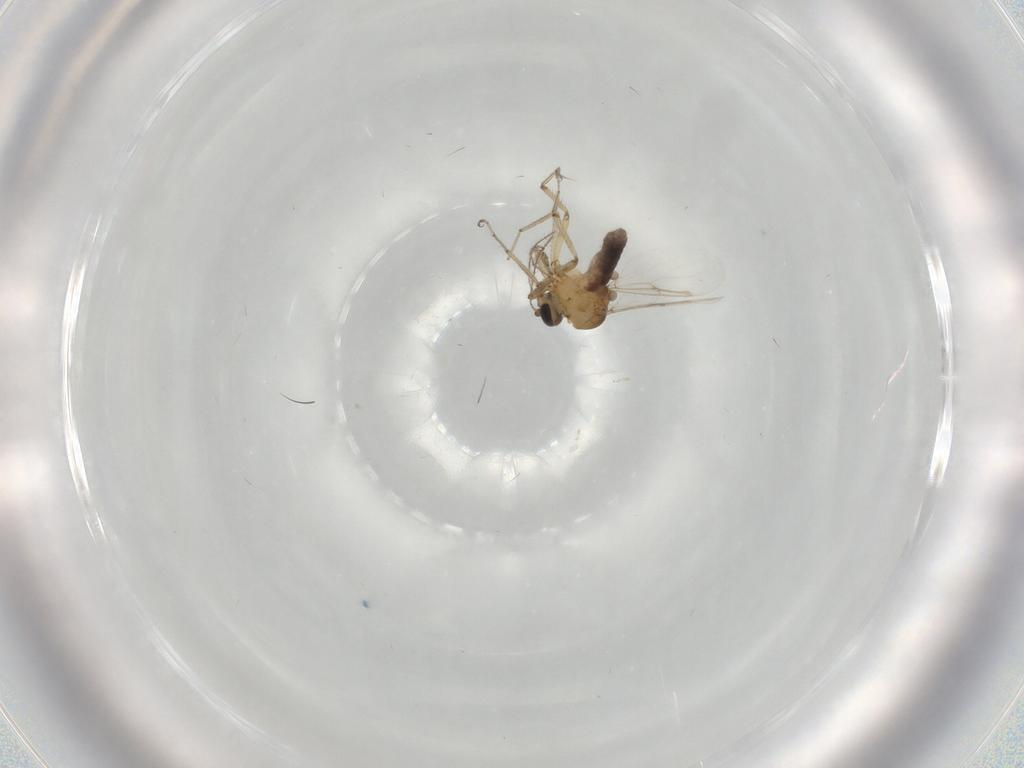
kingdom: Animalia
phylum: Arthropoda
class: Insecta
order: Diptera
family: Ceratopogonidae
